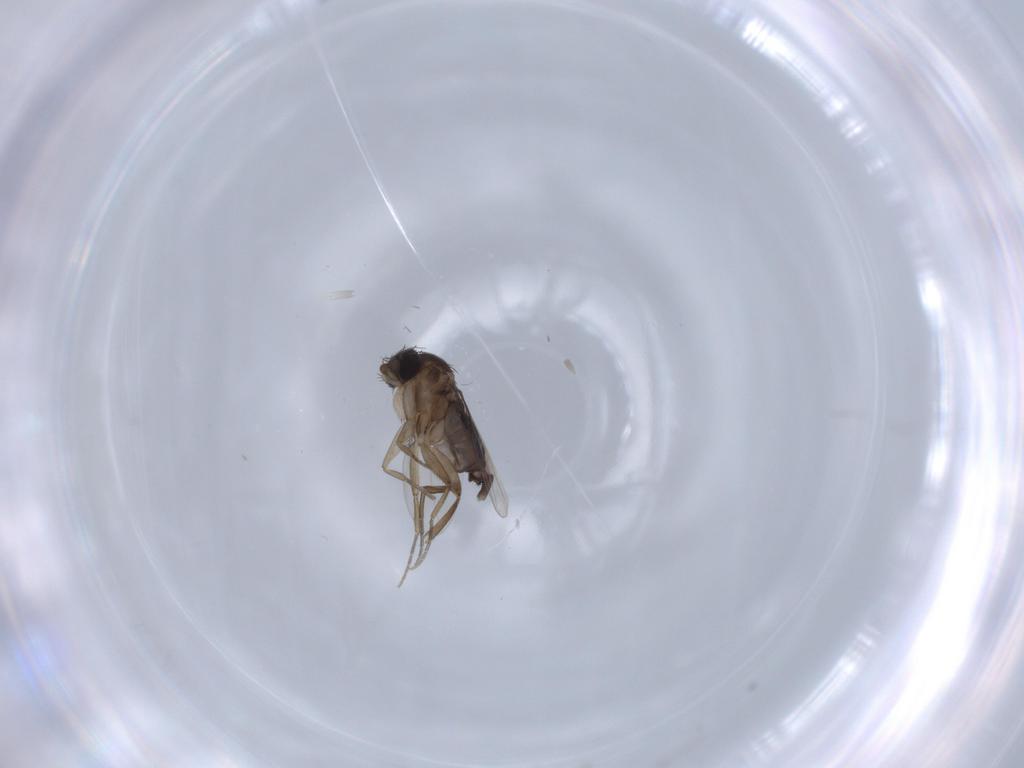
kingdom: Animalia
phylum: Arthropoda
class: Insecta
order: Diptera
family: Phoridae
